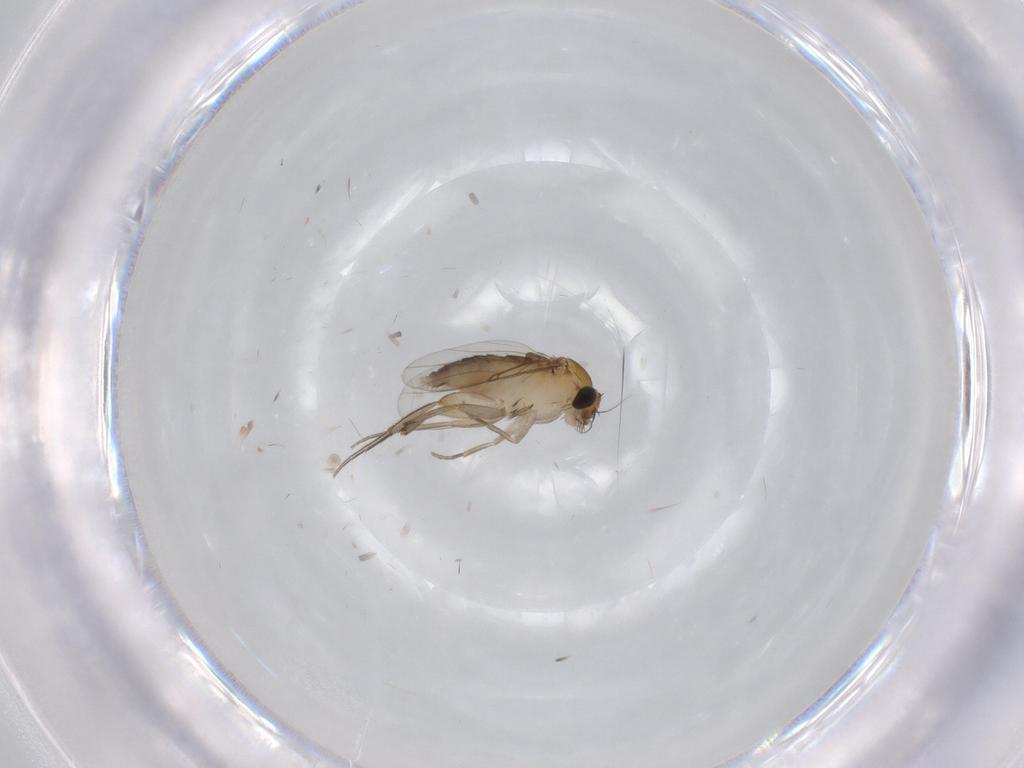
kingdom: Animalia
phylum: Arthropoda
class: Insecta
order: Diptera
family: Phoridae
